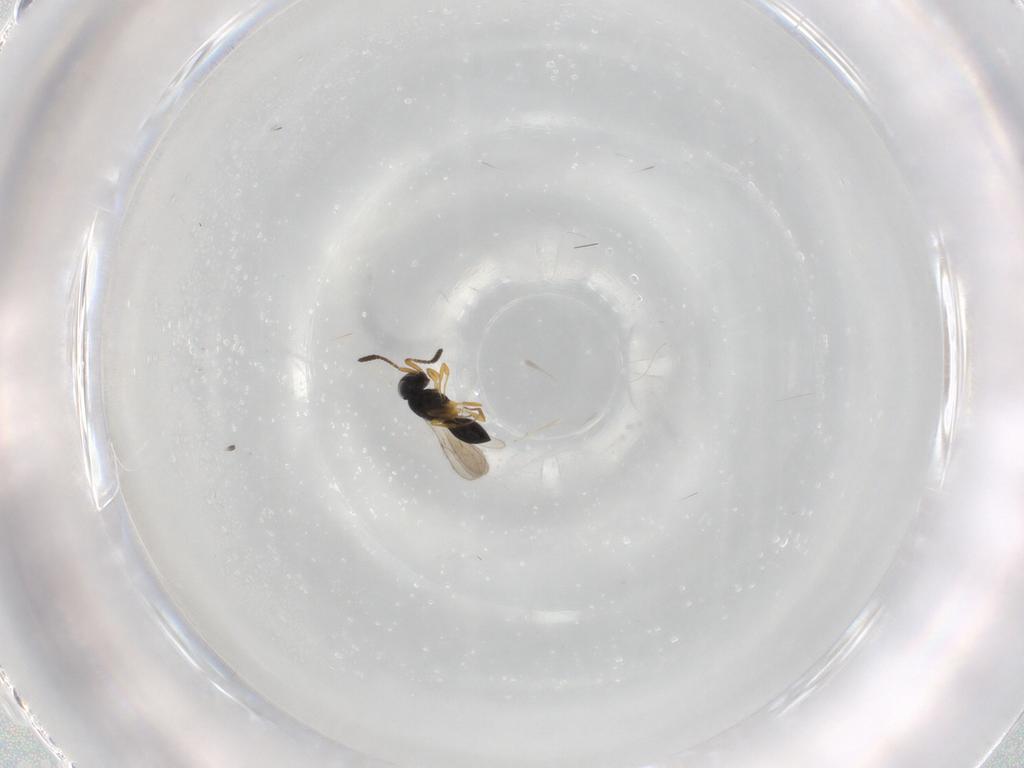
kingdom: Animalia
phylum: Arthropoda
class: Insecta
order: Hymenoptera
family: Scelionidae
